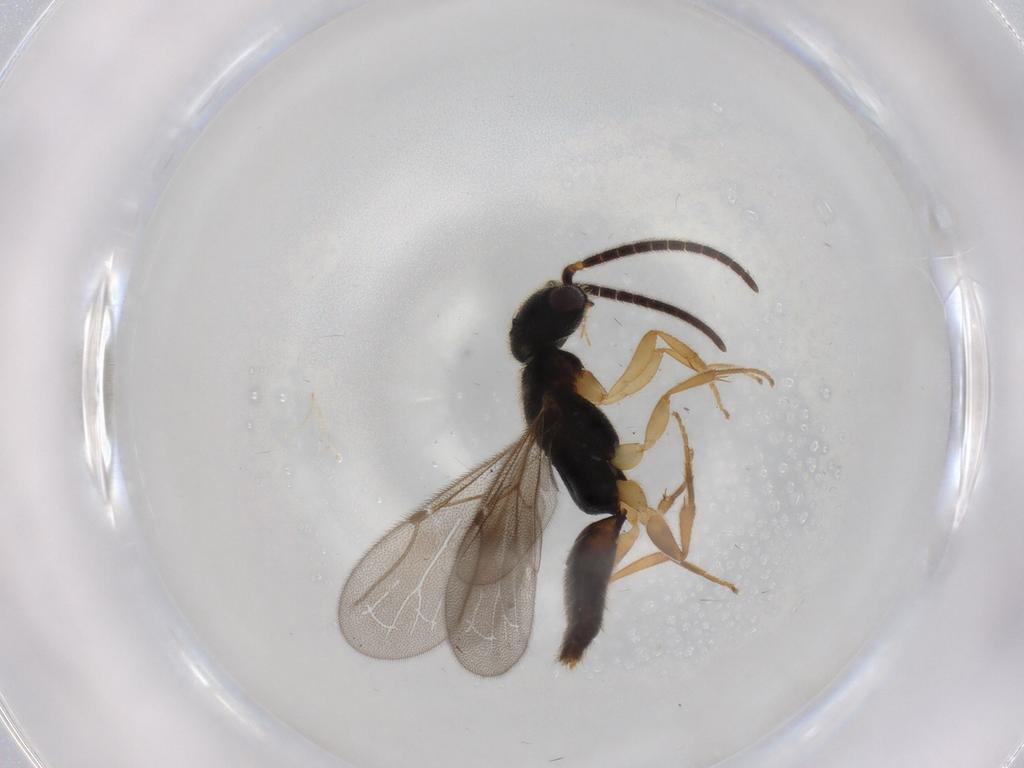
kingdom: Animalia
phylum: Arthropoda
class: Insecta
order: Hymenoptera
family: Bethylidae
